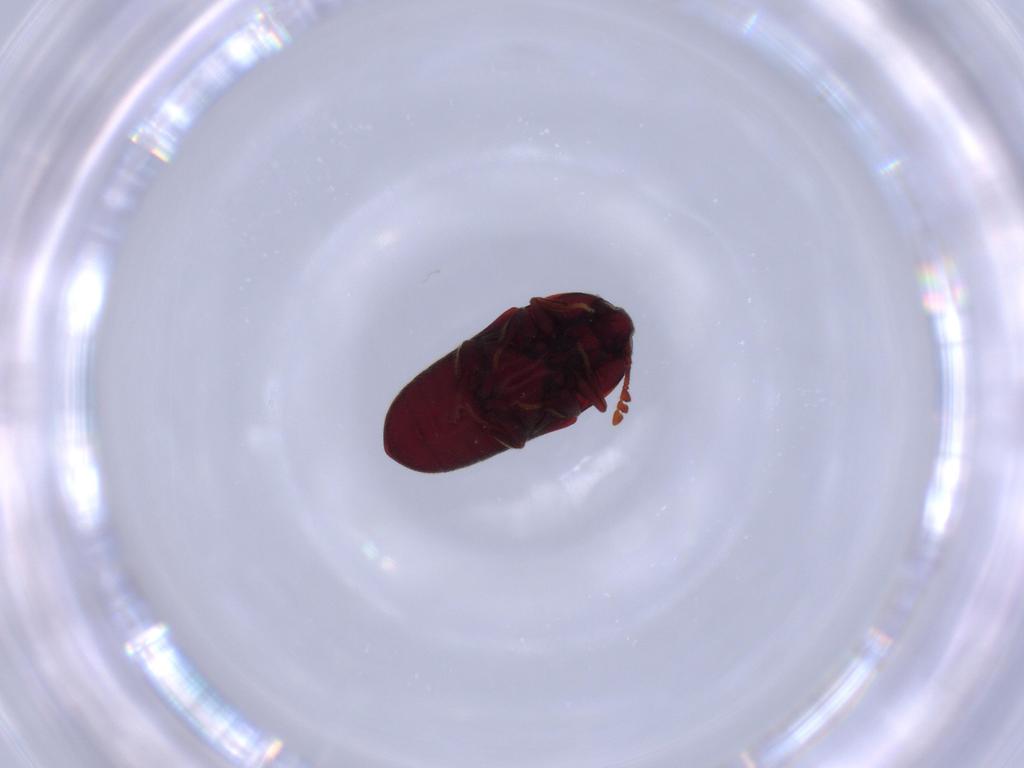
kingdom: Animalia
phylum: Arthropoda
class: Insecta
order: Coleoptera
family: Throscidae
